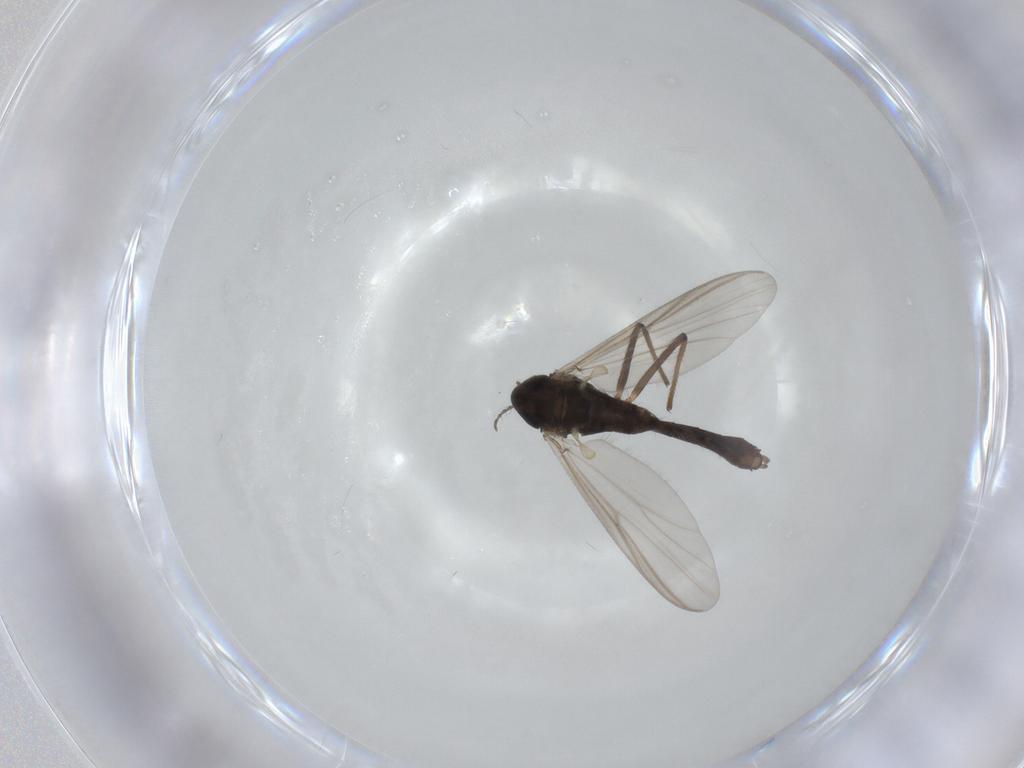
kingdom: Animalia
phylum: Arthropoda
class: Insecta
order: Diptera
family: Chironomidae
